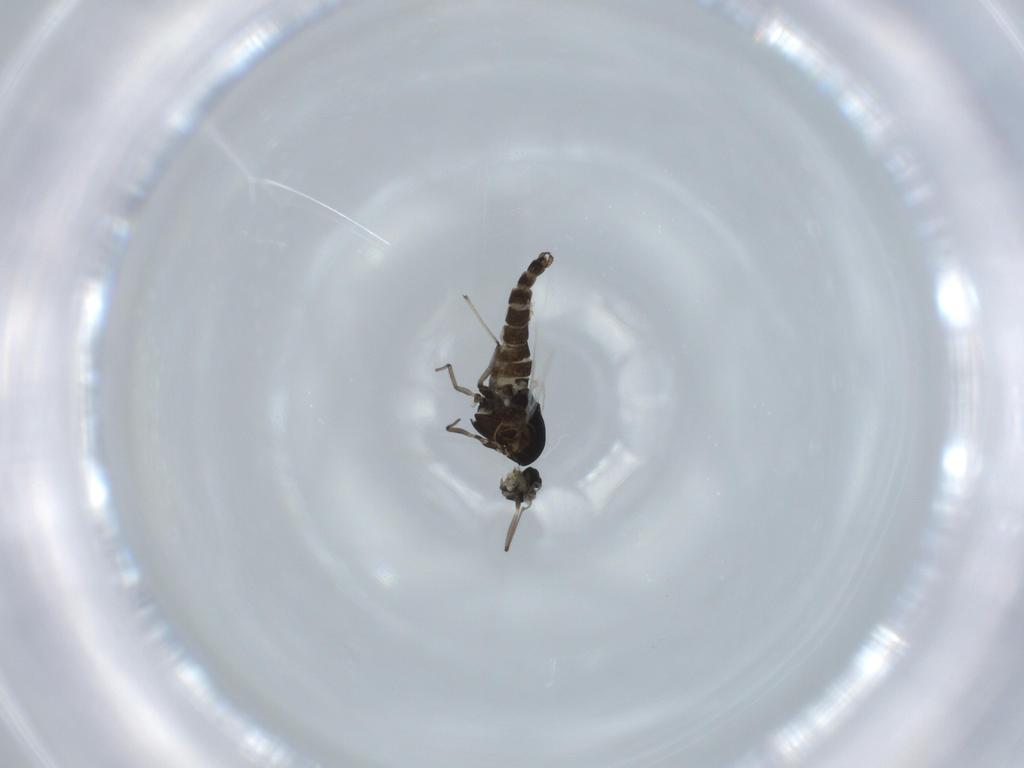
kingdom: Animalia
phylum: Arthropoda
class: Insecta
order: Diptera
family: Chironomidae
